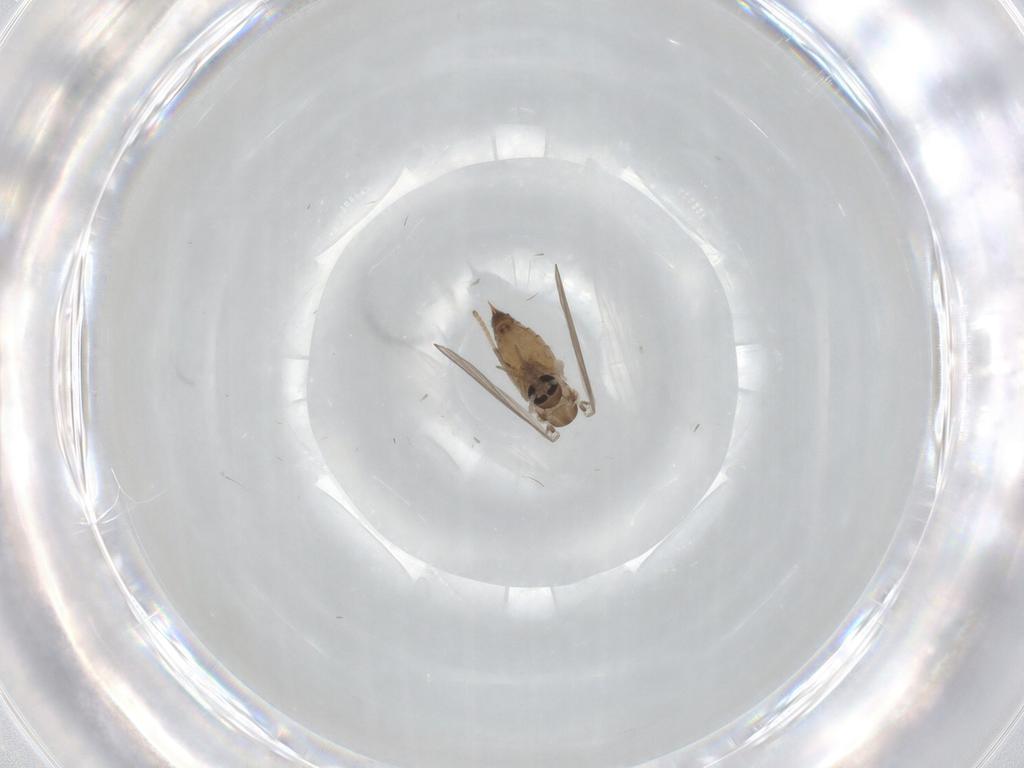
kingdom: Animalia
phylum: Arthropoda
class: Insecta
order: Diptera
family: Psychodidae
